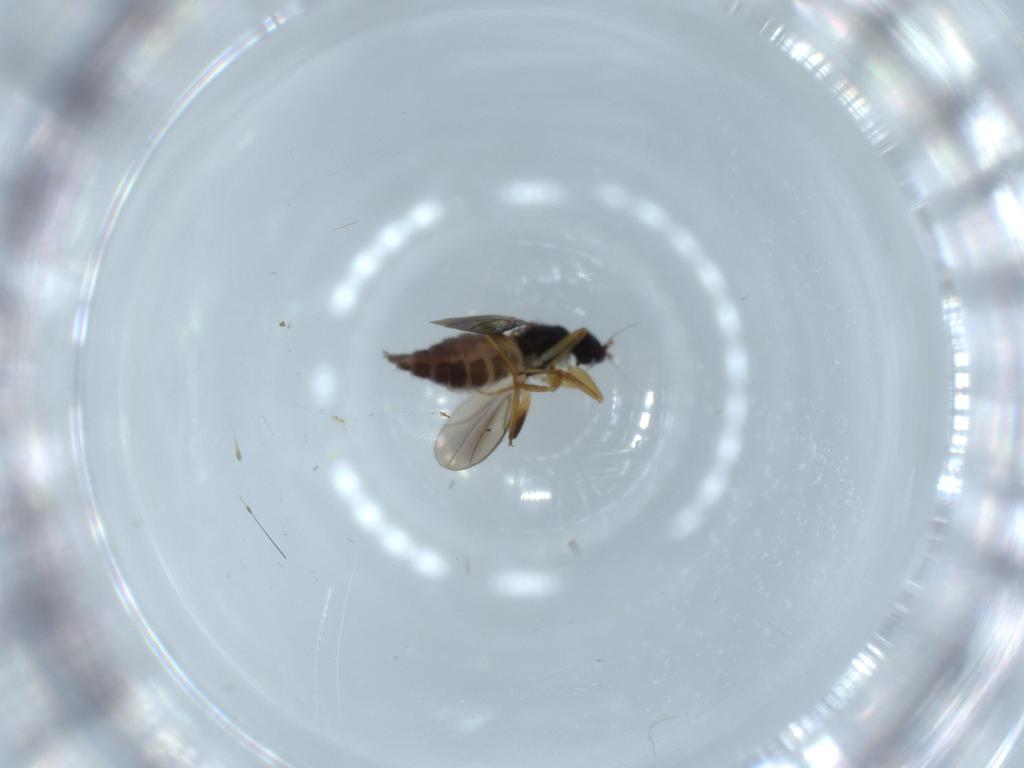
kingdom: Animalia
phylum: Arthropoda
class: Insecta
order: Diptera
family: Hybotidae
